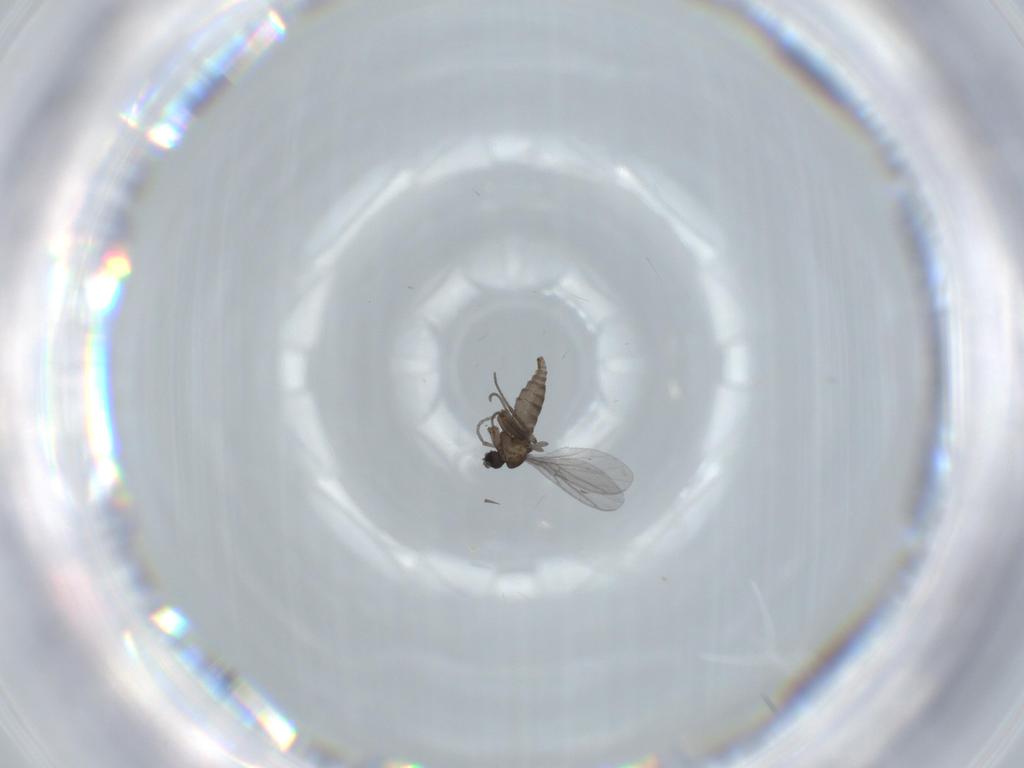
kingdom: Animalia
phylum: Arthropoda
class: Insecta
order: Diptera
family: Sciaridae
